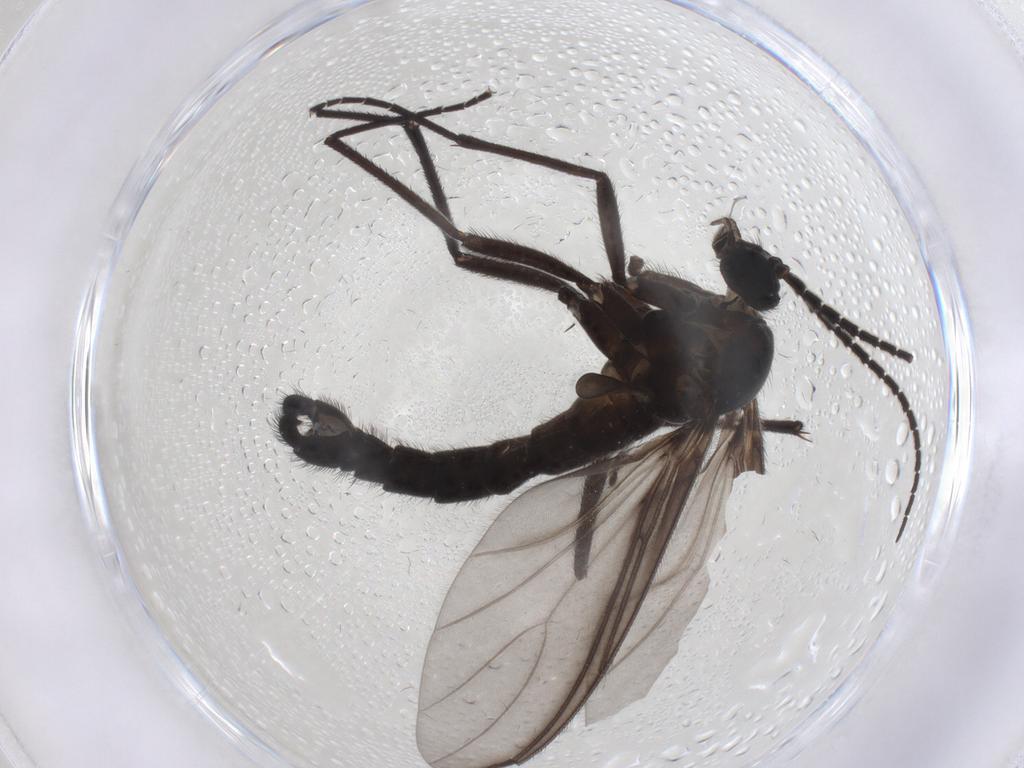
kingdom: Animalia
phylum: Arthropoda
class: Insecta
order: Diptera
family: Chironomidae
